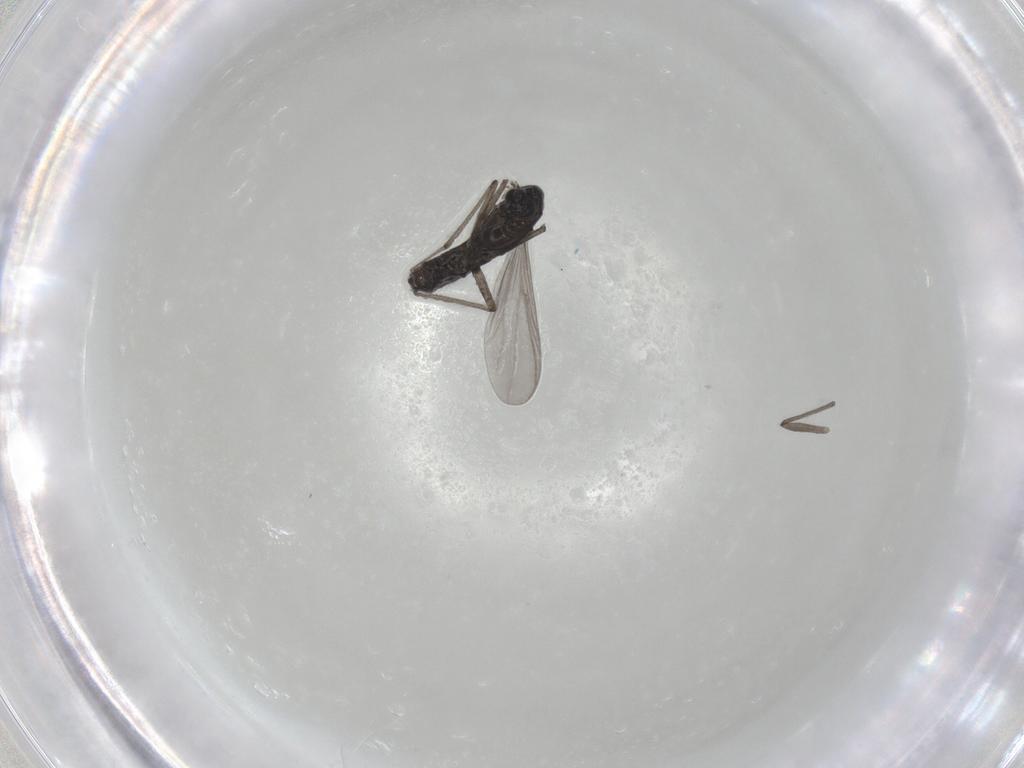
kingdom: Animalia
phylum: Arthropoda
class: Insecta
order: Diptera
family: Chironomidae
